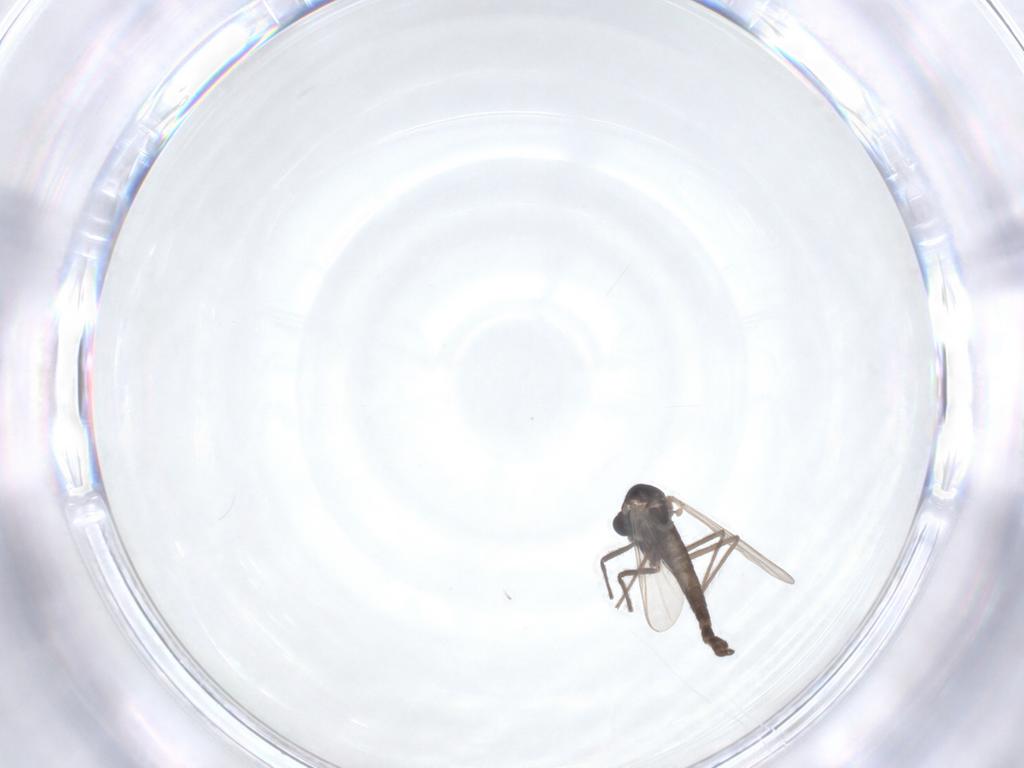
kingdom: Animalia
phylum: Arthropoda
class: Insecta
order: Diptera
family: Chironomidae
